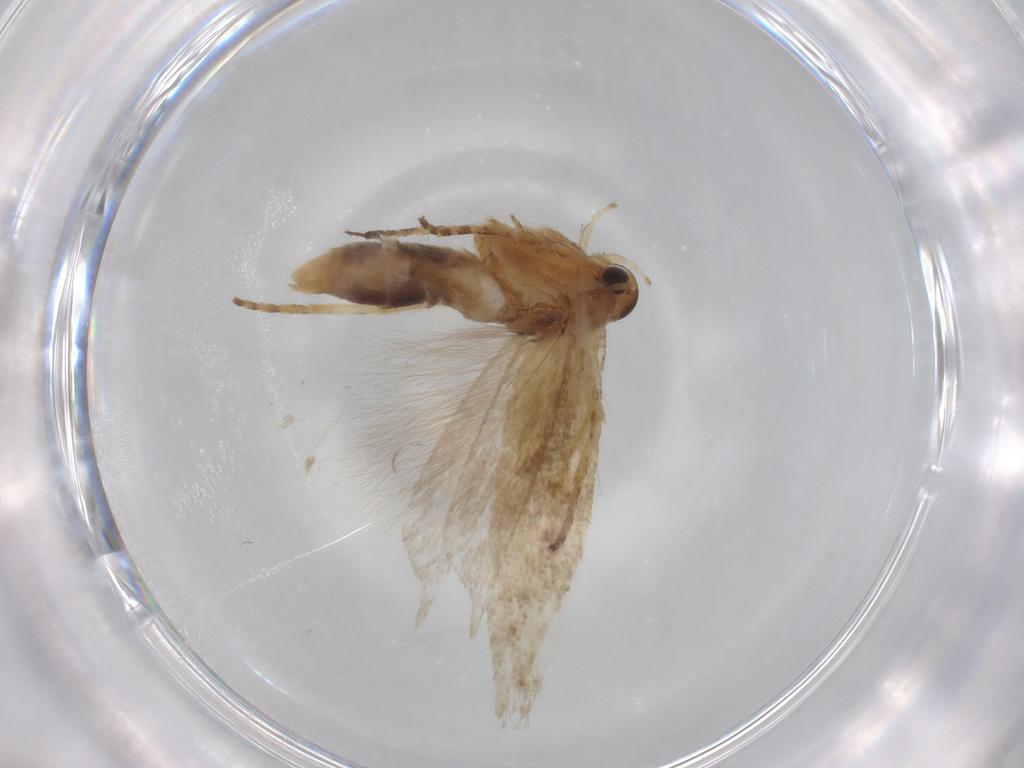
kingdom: Animalia
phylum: Arthropoda
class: Insecta
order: Lepidoptera
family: Gelechiidae
